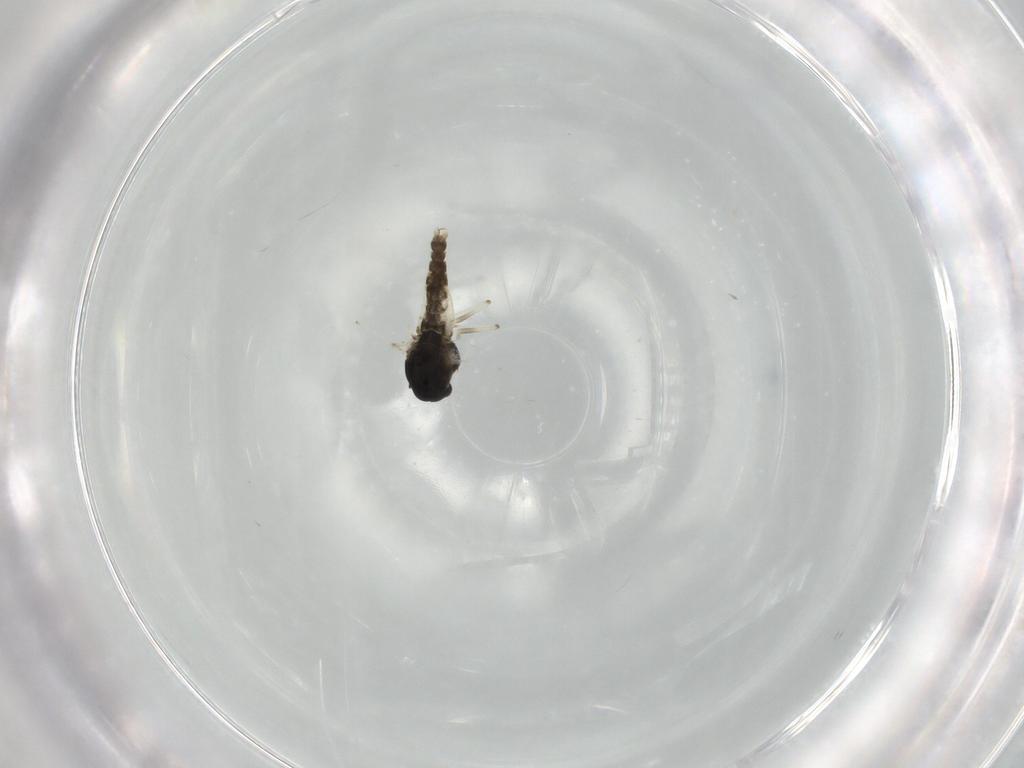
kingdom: Animalia
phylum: Arthropoda
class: Insecta
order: Diptera
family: Chironomidae
